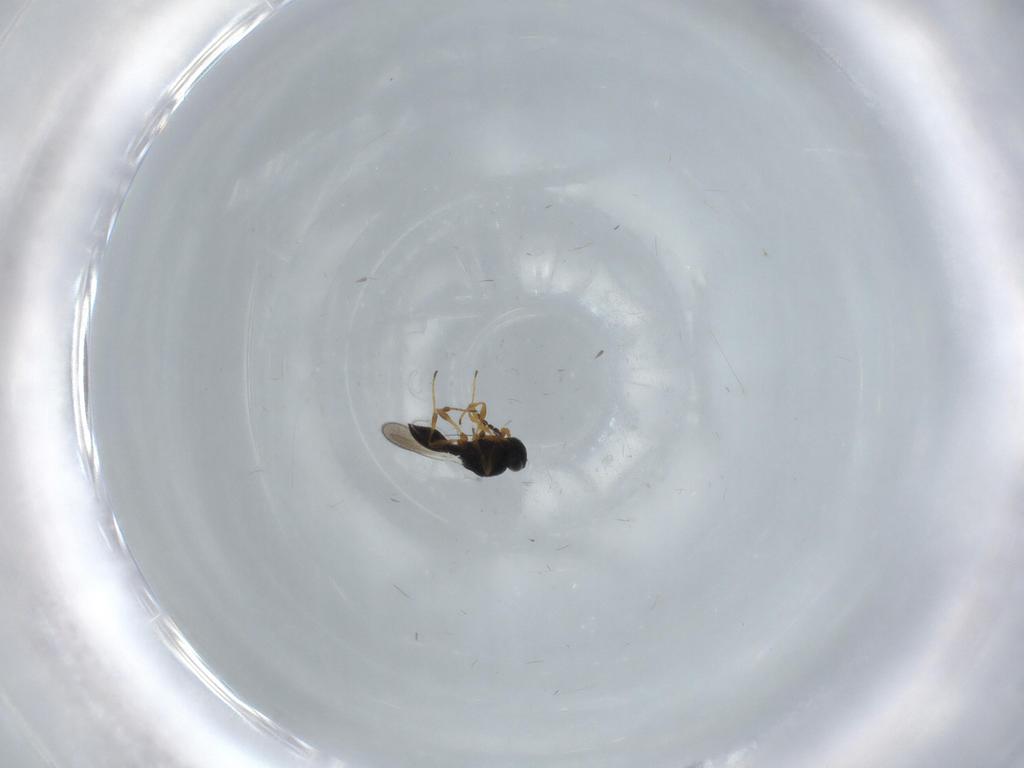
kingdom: Animalia
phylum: Arthropoda
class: Insecta
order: Hymenoptera
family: Platygastridae
